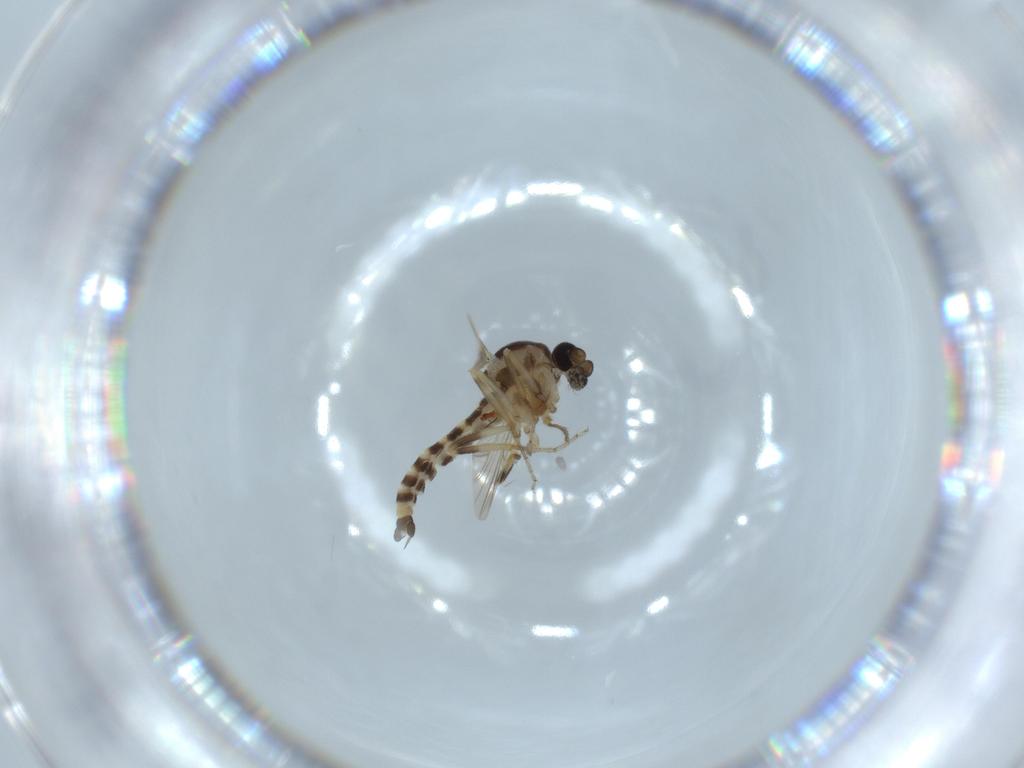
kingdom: Animalia
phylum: Arthropoda
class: Insecta
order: Diptera
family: Ceratopogonidae
